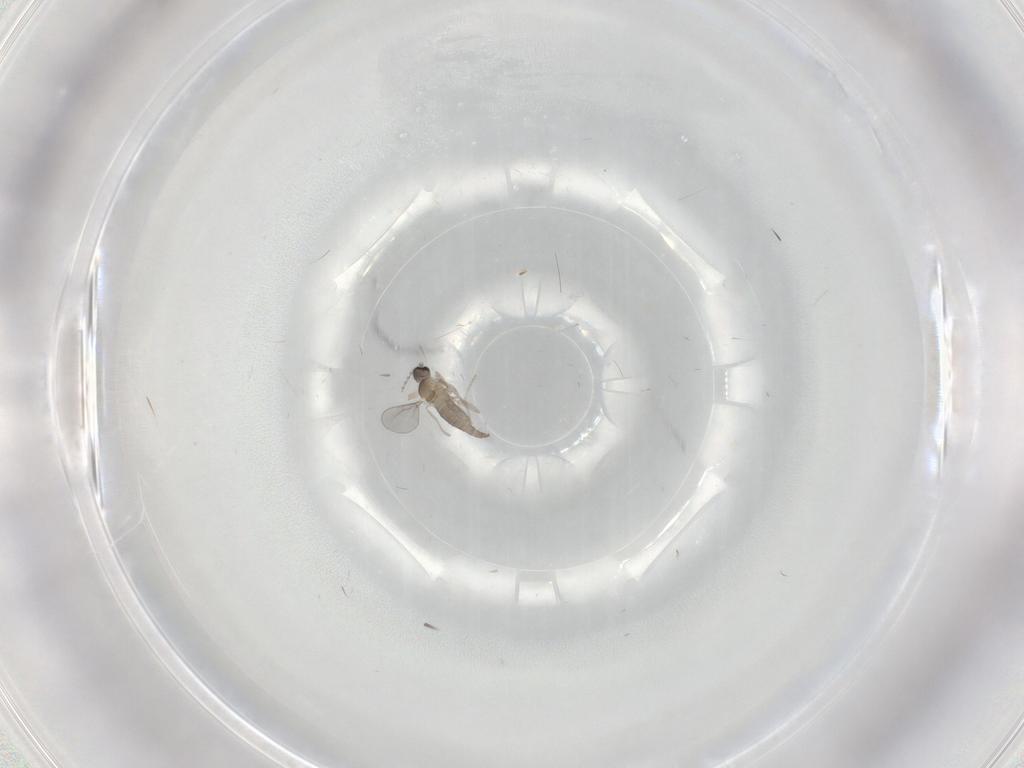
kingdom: Animalia
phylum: Arthropoda
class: Insecta
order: Diptera
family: Cecidomyiidae
